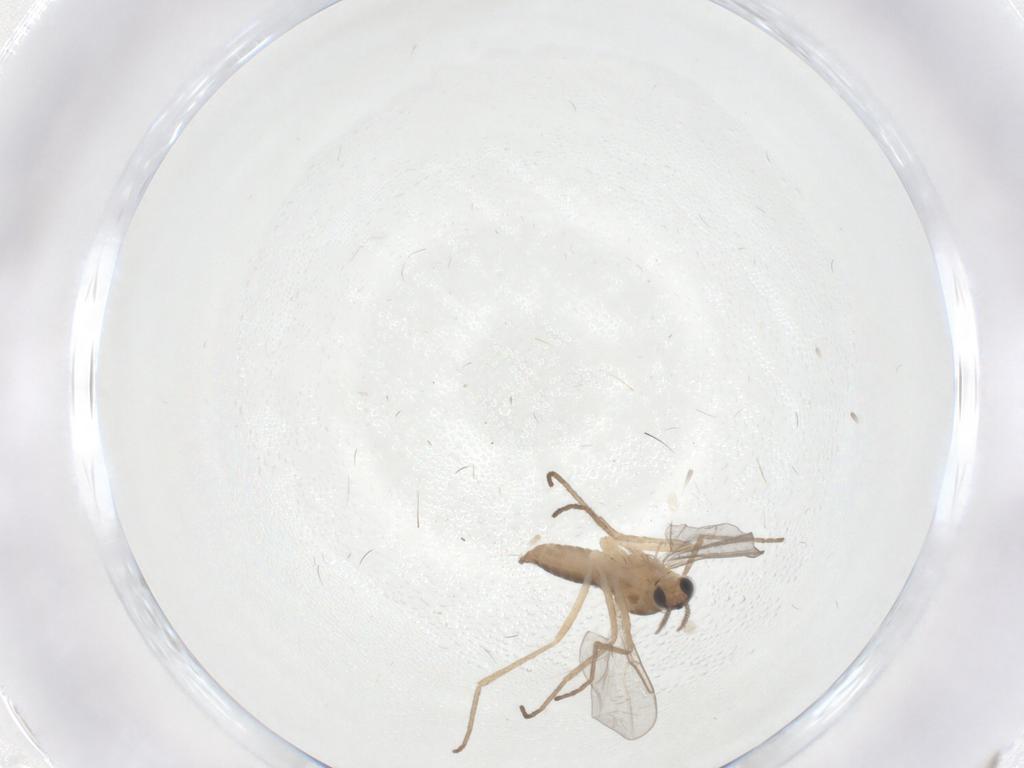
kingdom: Animalia
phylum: Arthropoda
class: Insecta
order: Diptera
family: Cecidomyiidae
